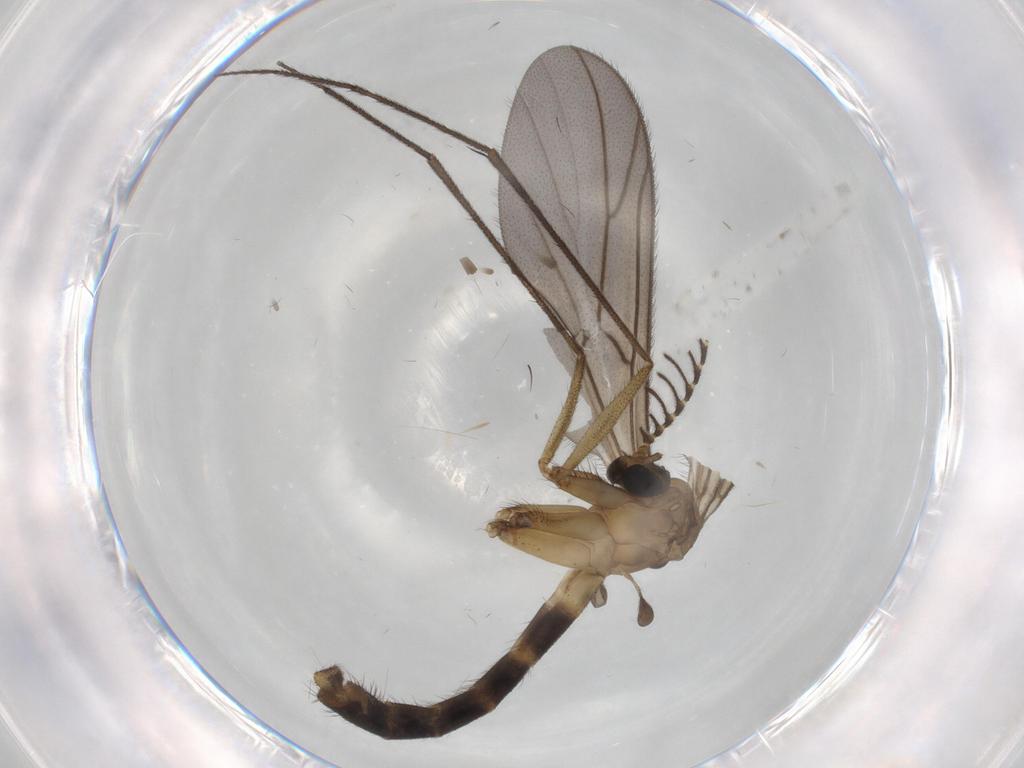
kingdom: Animalia
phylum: Arthropoda
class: Insecta
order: Diptera
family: Ditomyiidae
